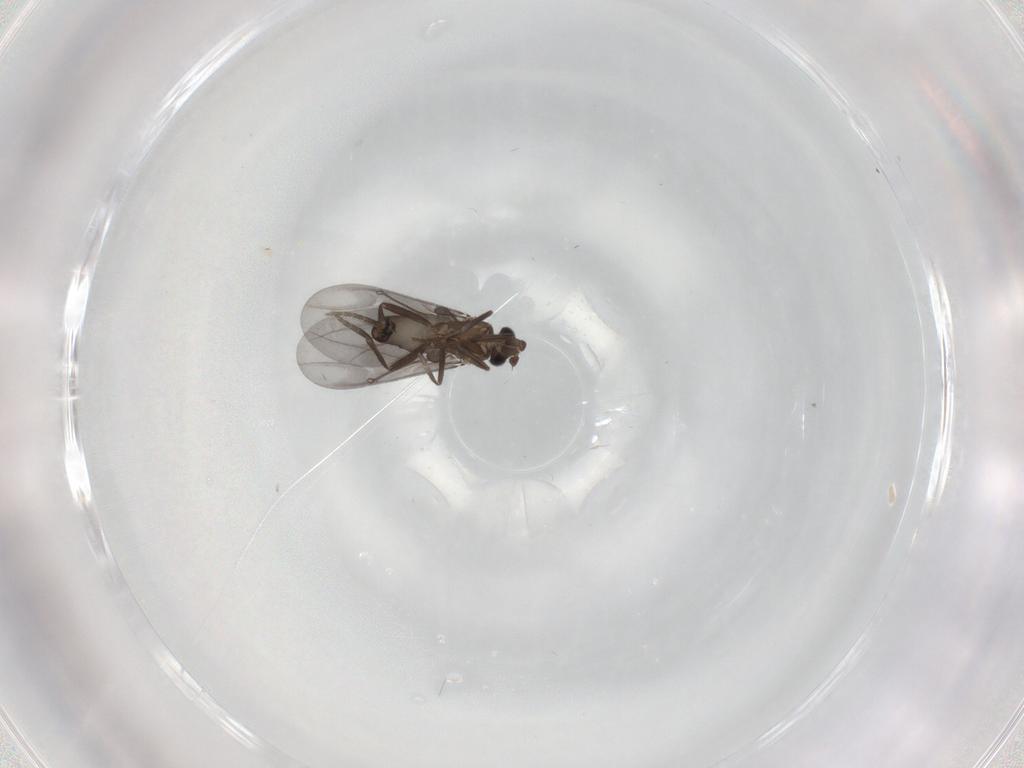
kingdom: Animalia
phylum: Arthropoda
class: Insecta
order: Diptera
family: Phoridae
